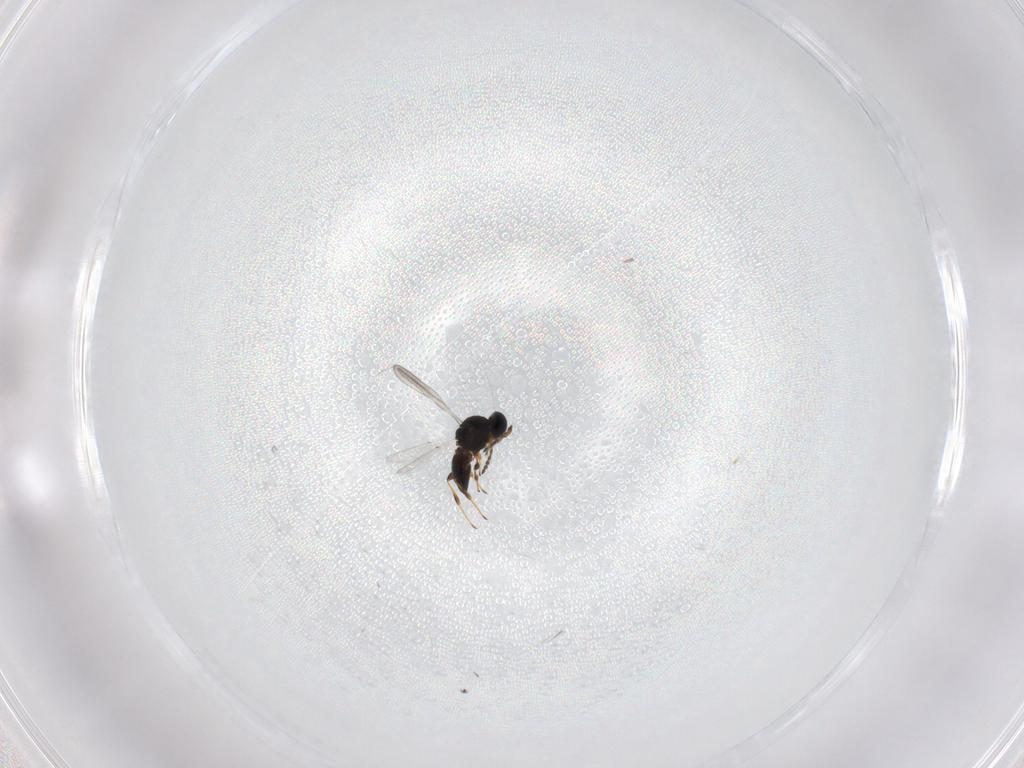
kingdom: Animalia
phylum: Arthropoda
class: Insecta
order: Hymenoptera
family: Platygastridae
